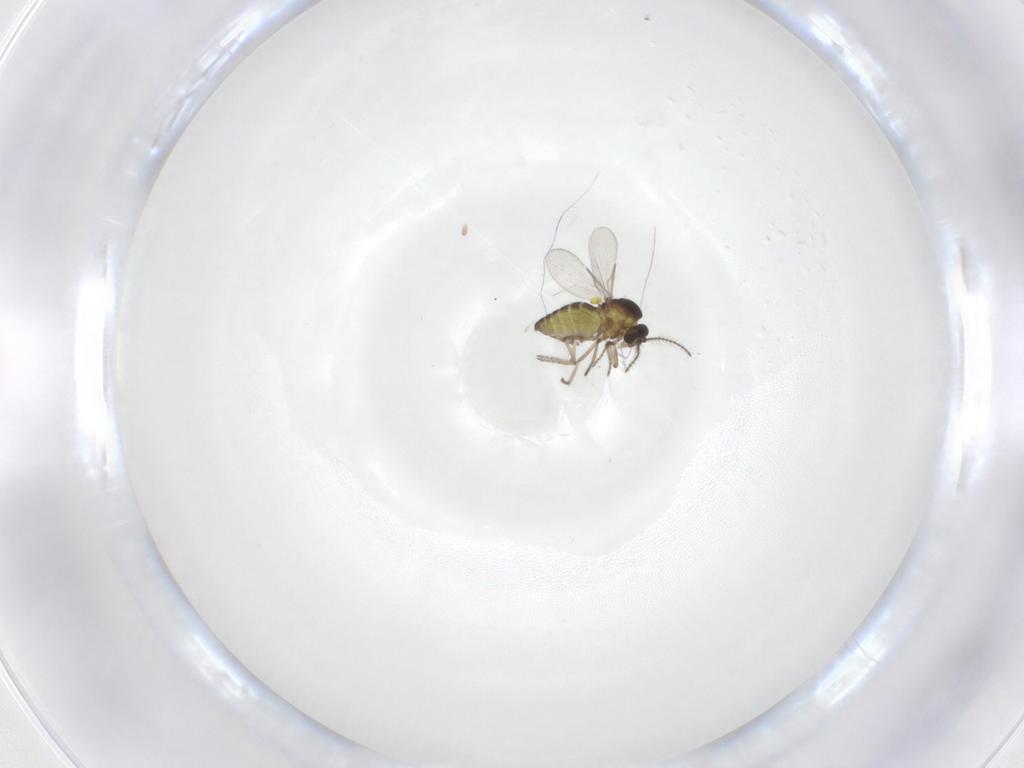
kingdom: Animalia
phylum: Arthropoda
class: Insecta
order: Diptera
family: Ceratopogonidae
